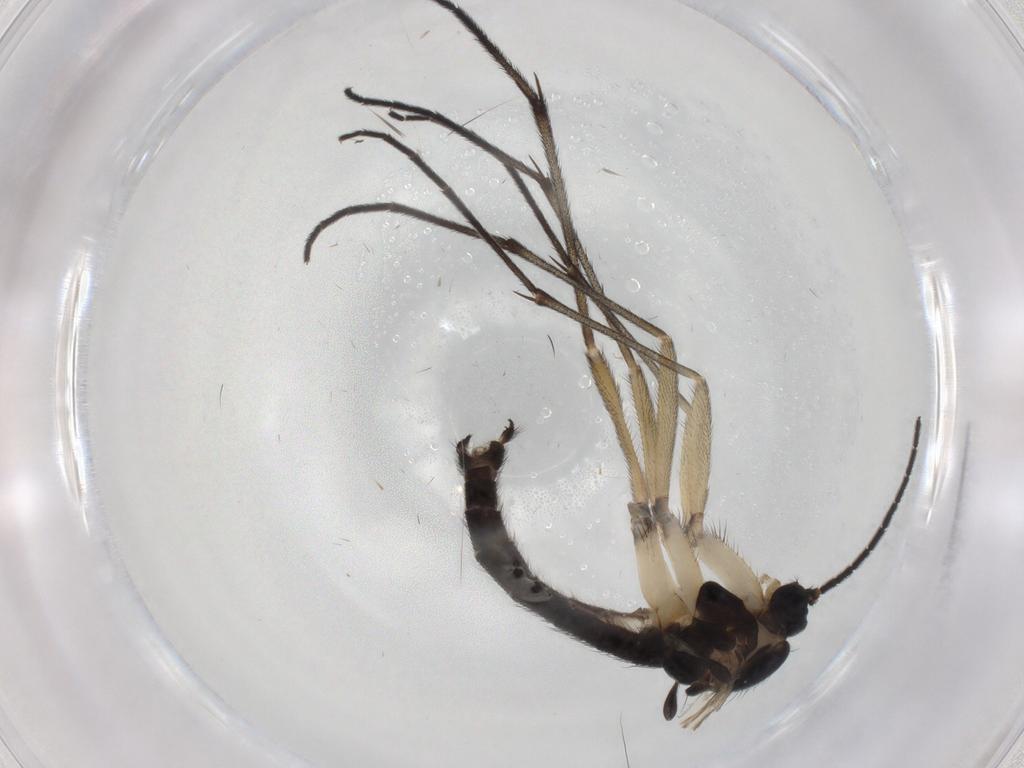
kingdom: Animalia
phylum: Arthropoda
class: Insecta
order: Diptera
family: Sciaridae
